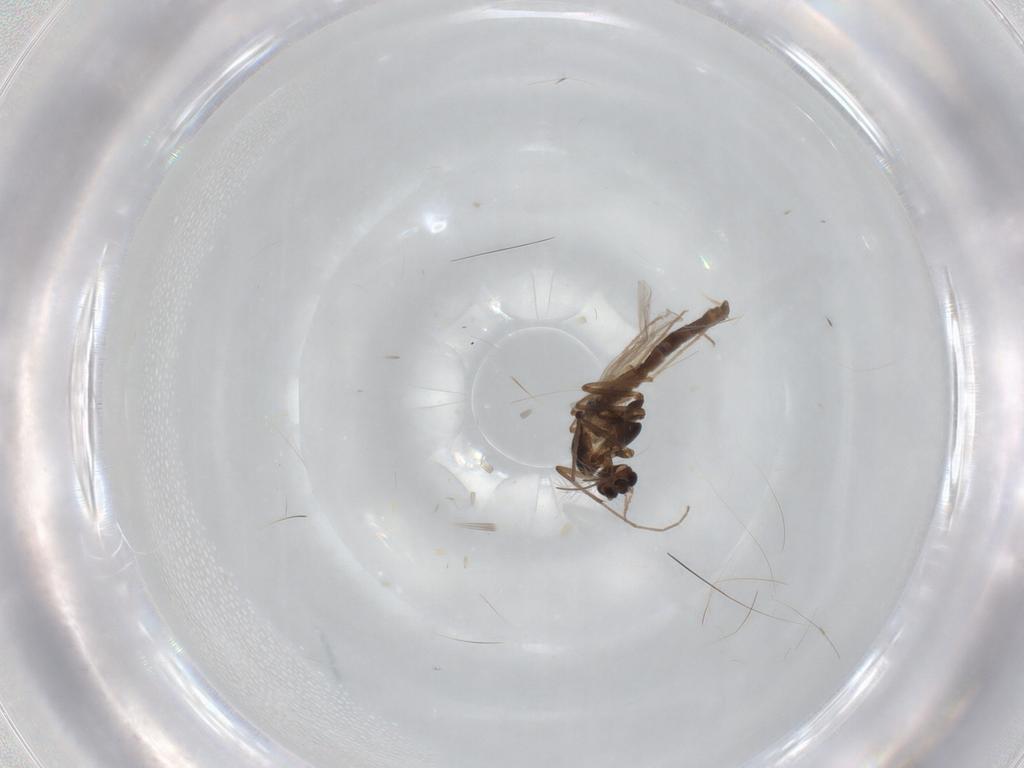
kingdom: Animalia
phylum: Arthropoda
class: Insecta
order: Diptera
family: Chironomidae
